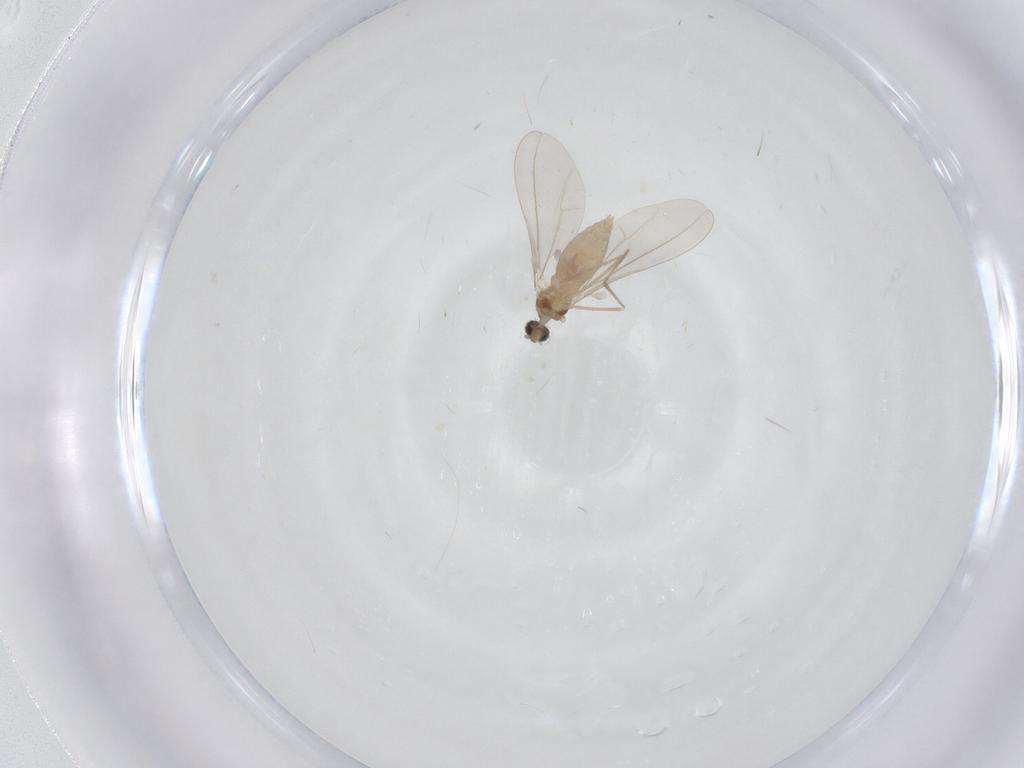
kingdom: Animalia
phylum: Arthropoda
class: Insecta
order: Diptera
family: Cecidomyiidae
